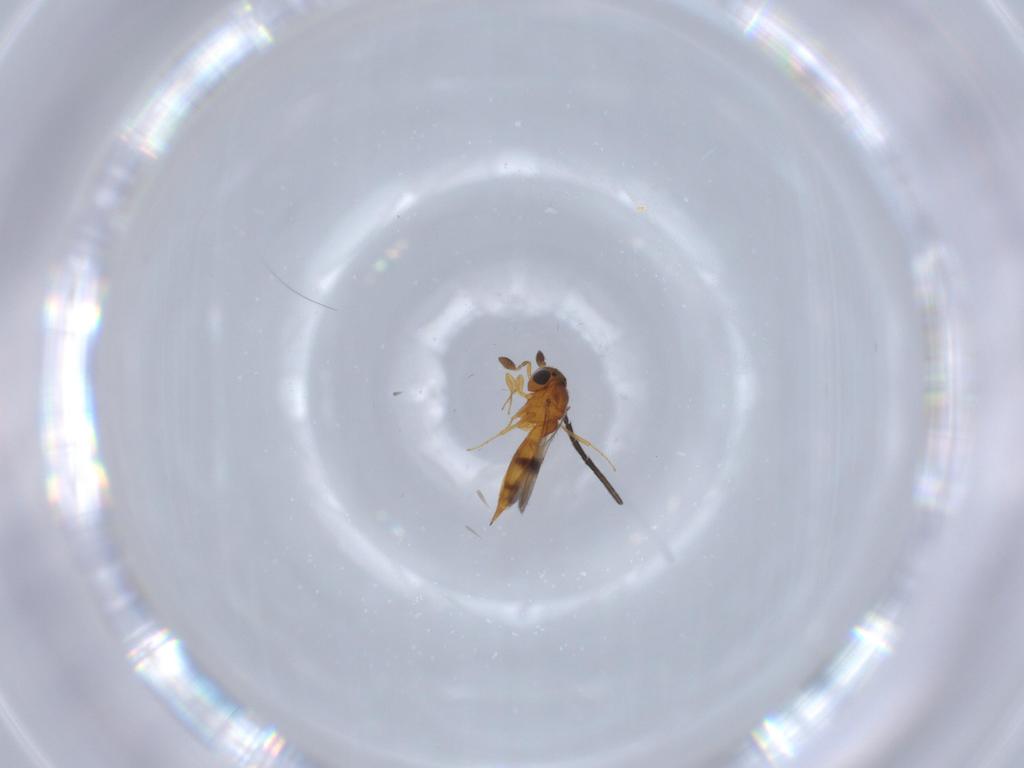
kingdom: Animalia
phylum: Arthropoda
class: Insecta
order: Hymenoptera
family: Scelionidae
